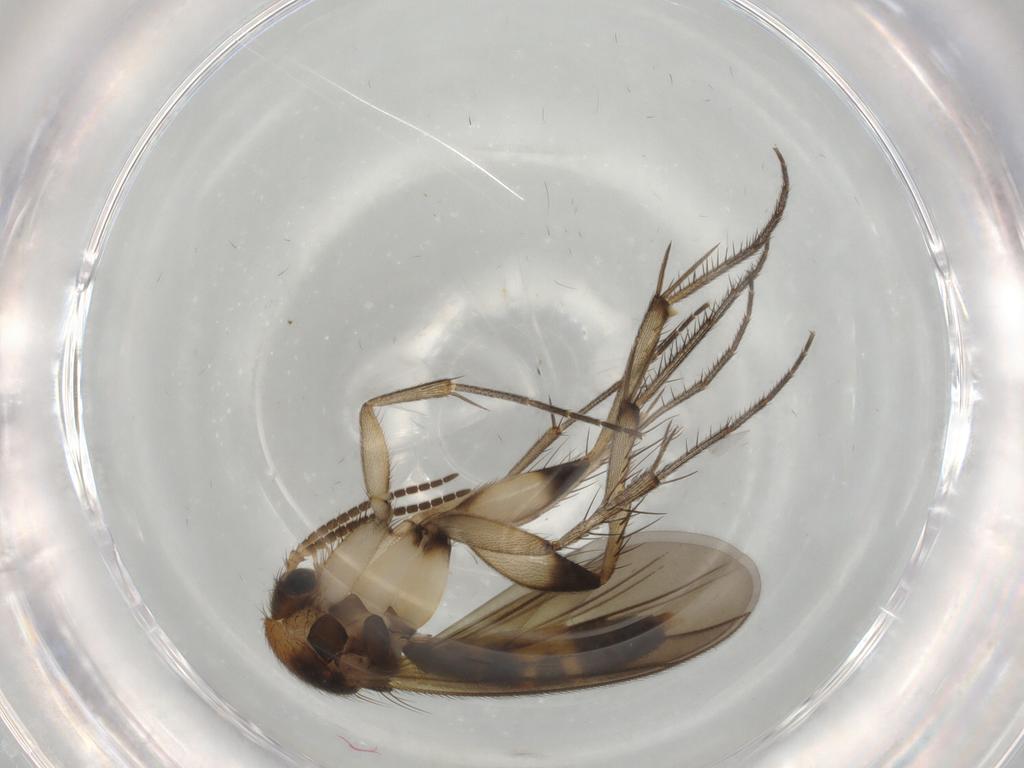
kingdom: Animalia
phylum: Arthropoda
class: Insecta
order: Diptera
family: Mycetophilidae
